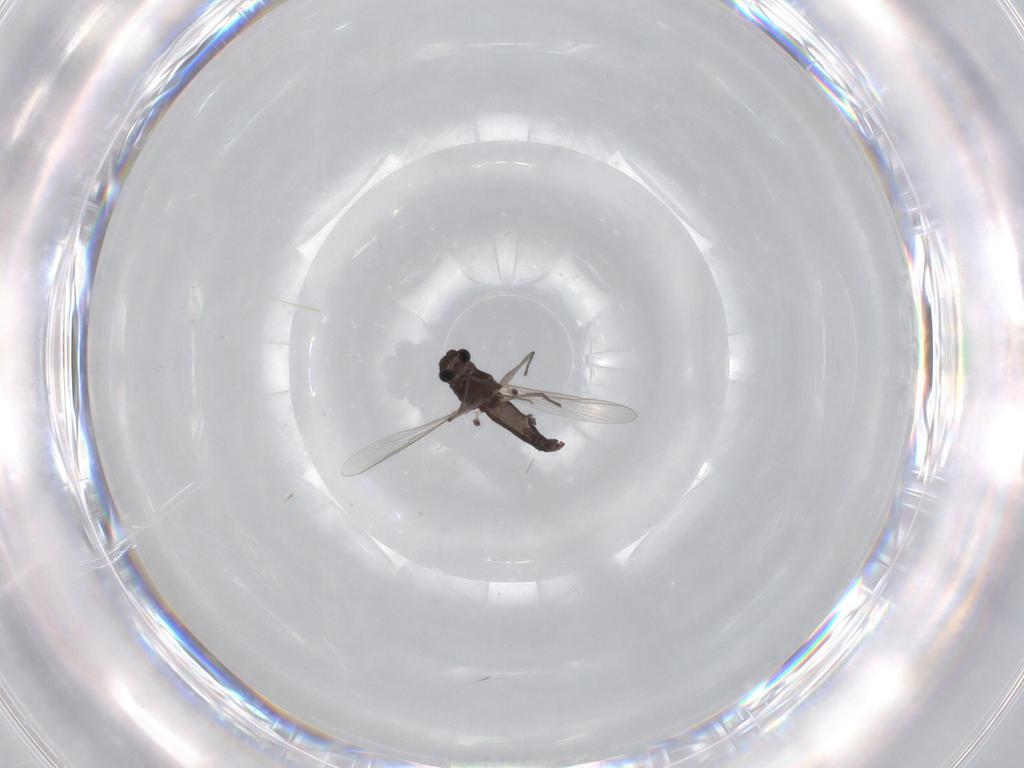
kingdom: Animalia
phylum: Arthropoda
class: Insecta
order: Diptera
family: Chironomidae
